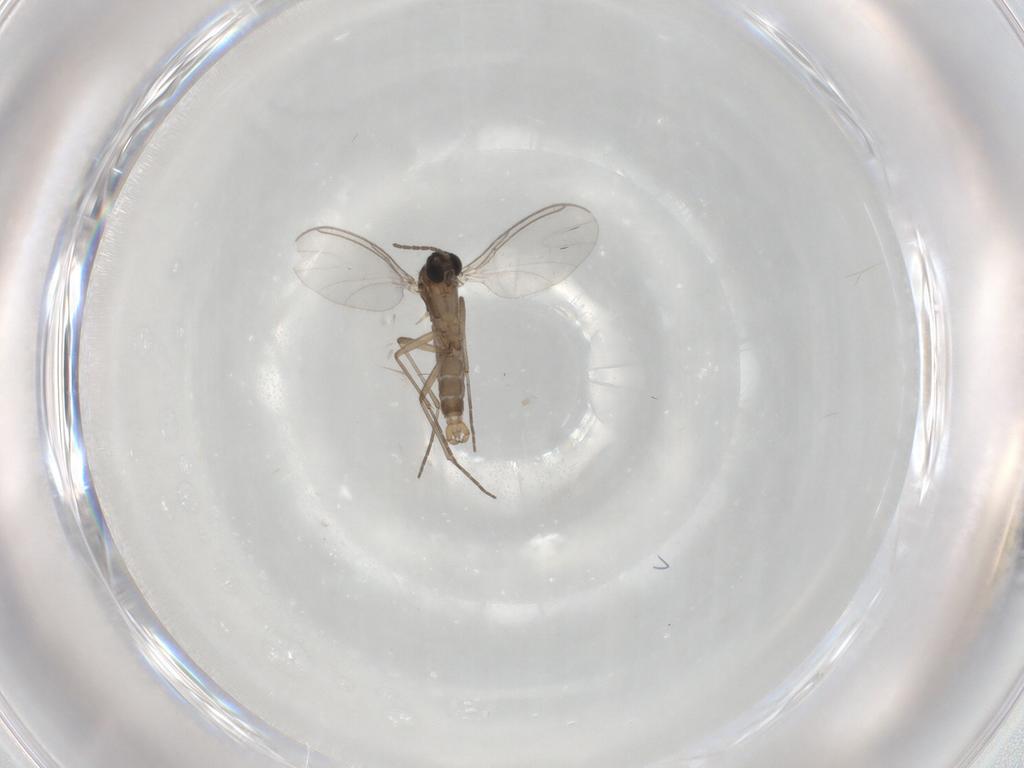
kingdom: Animalia
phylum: Arthropoda
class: Insecta
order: Diptera
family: Sciaridae
